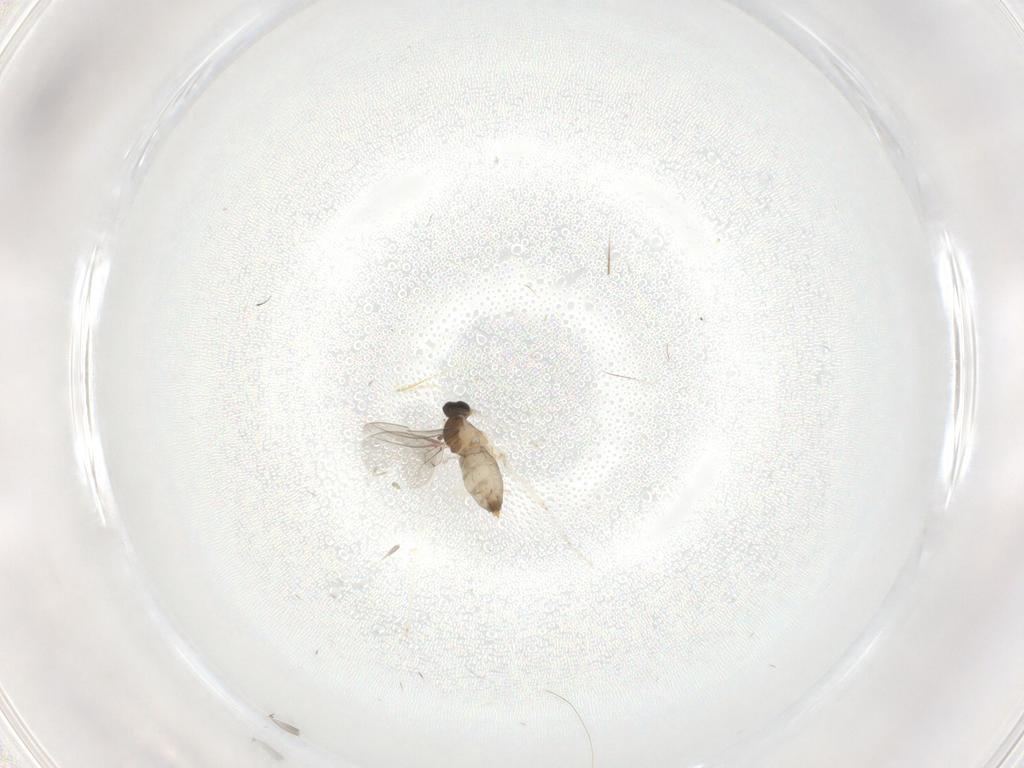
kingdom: Animalia
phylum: Arthropoda
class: Insecta
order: Diptera
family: Cecidomyiidae
